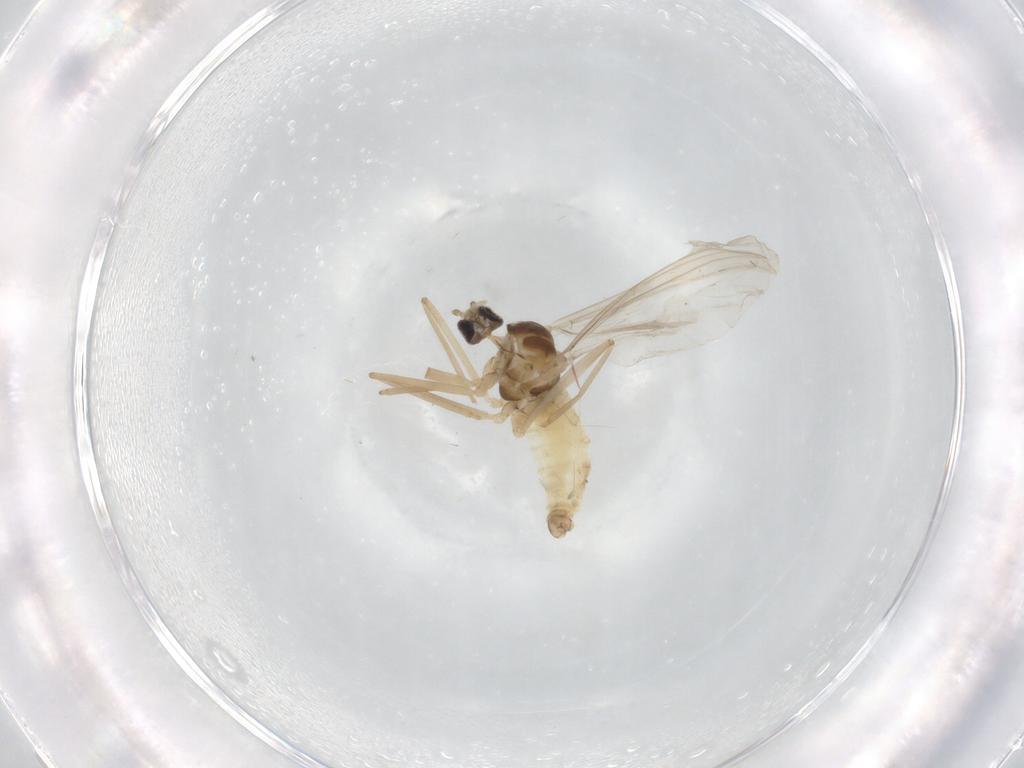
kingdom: Animalia
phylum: Arthropoda
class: Insecta
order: Diptera
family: Cecidomyiidae
